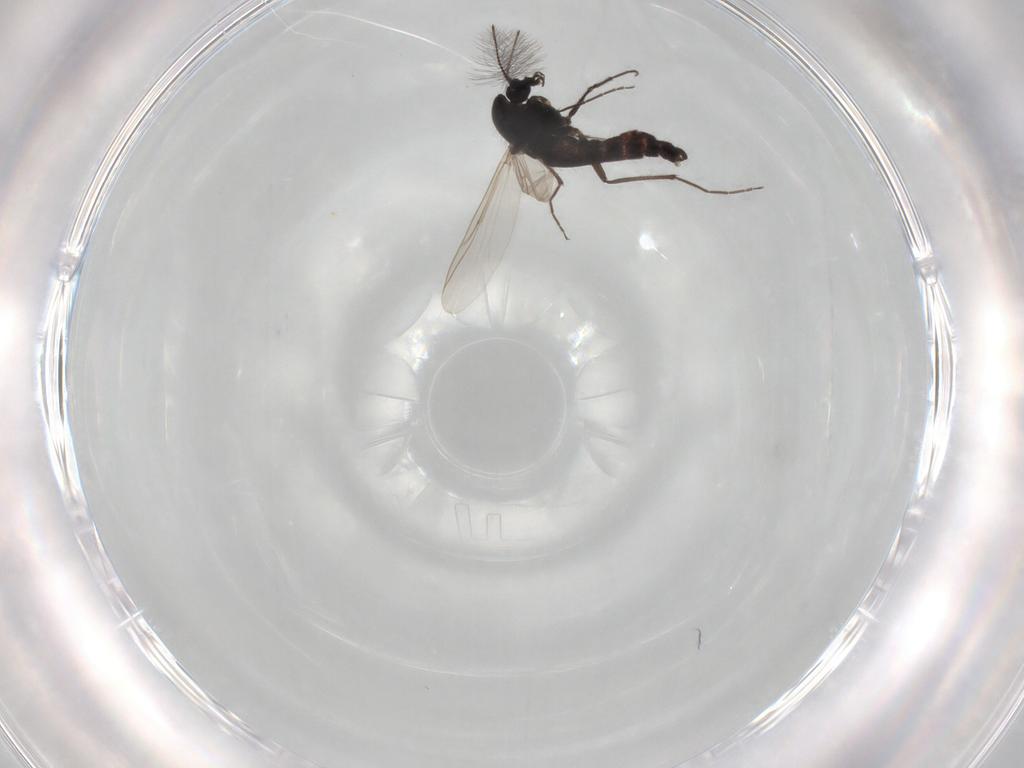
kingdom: Animalia
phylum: Arthropoda
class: Insecta
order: Diptera
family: Chironomidae
